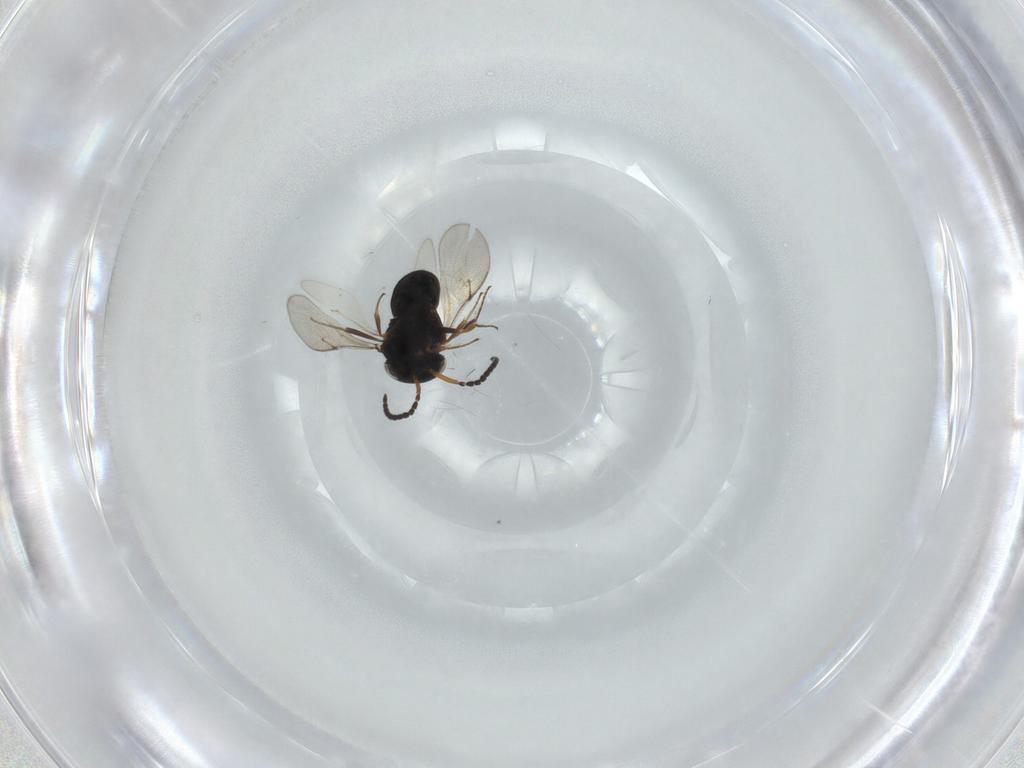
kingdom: Animalia
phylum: Arthropoda
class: Insecta
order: Hymenoptera
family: Scelionidae
